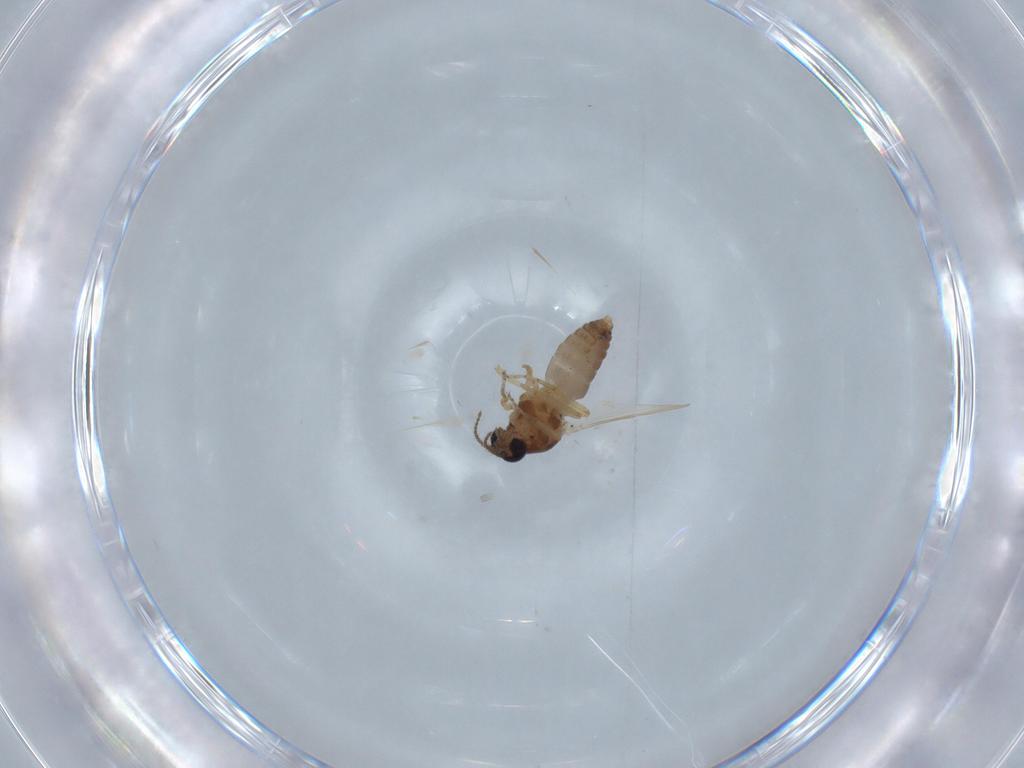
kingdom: Animalia
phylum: Arthropoda
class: Insecta
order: Diptera
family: Ceratopogonidae
